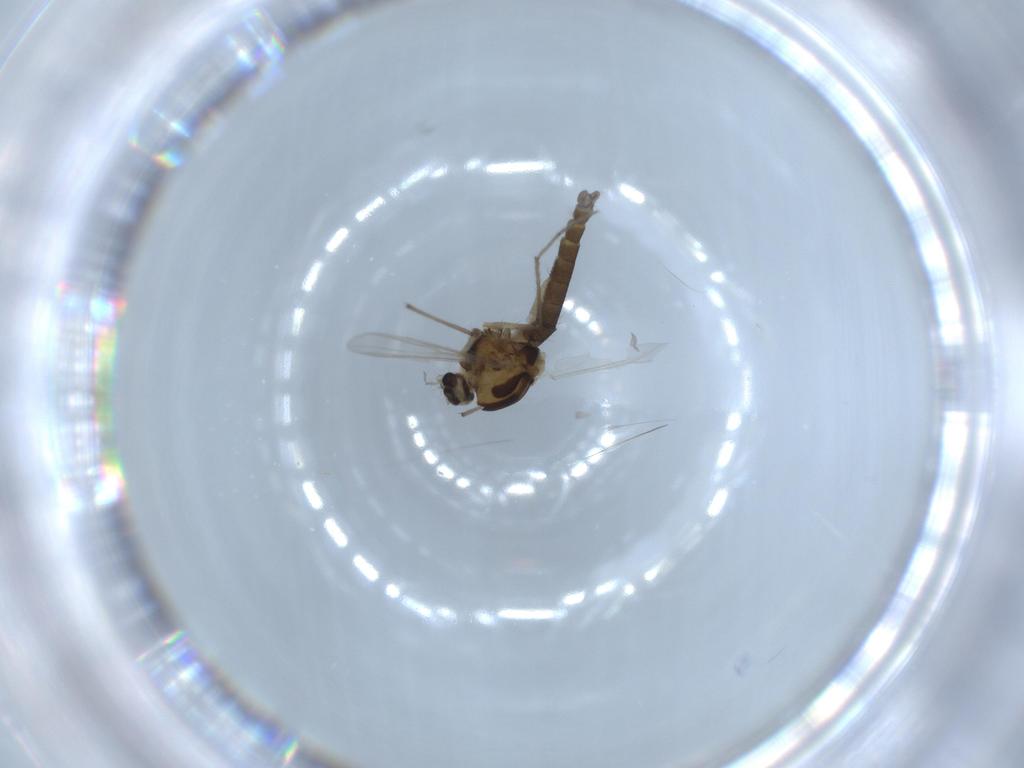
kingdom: Animalia
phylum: Arthropoda
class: Insecta
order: Diptera
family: Chironomidae
